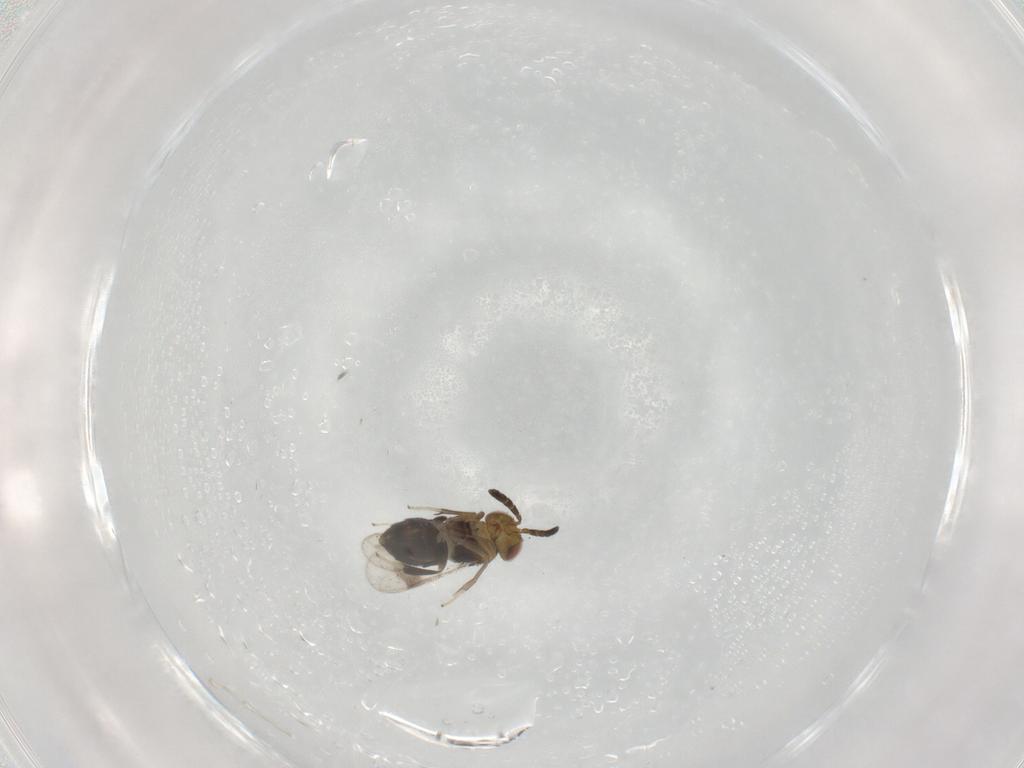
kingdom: Animalia
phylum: Arthropoda
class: Insecta
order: Hymenoptera
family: Aphelinidae
